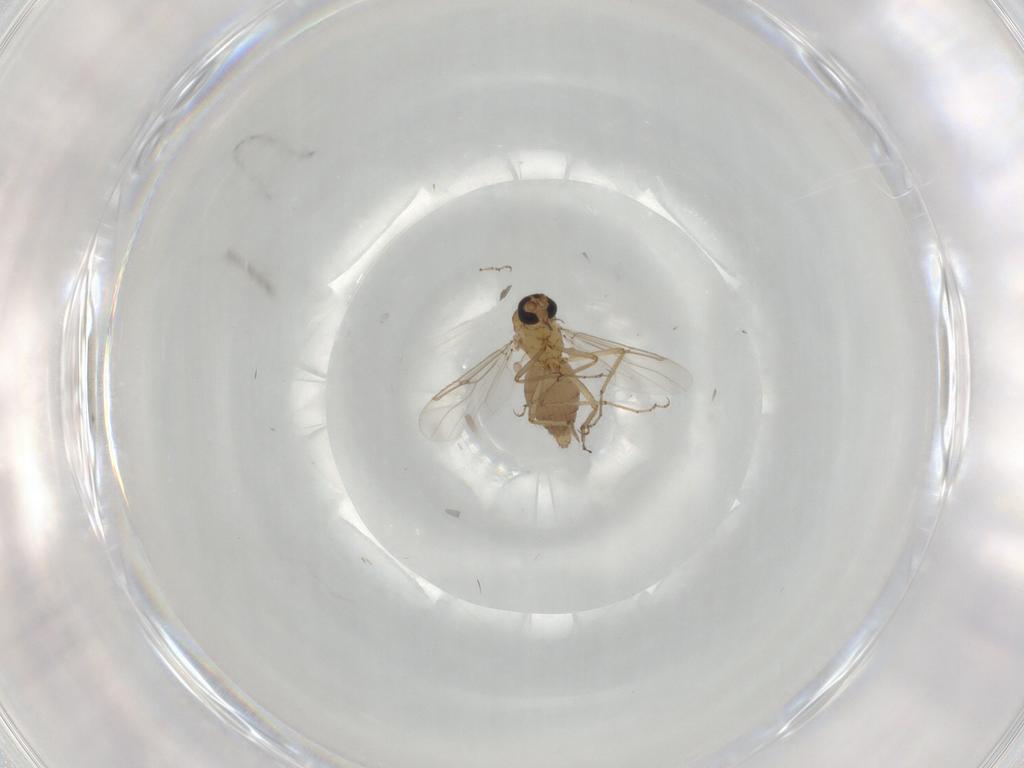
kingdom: Animalia
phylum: Arthropoda
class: Insecta
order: Diptera
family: Ceratopogonidae
